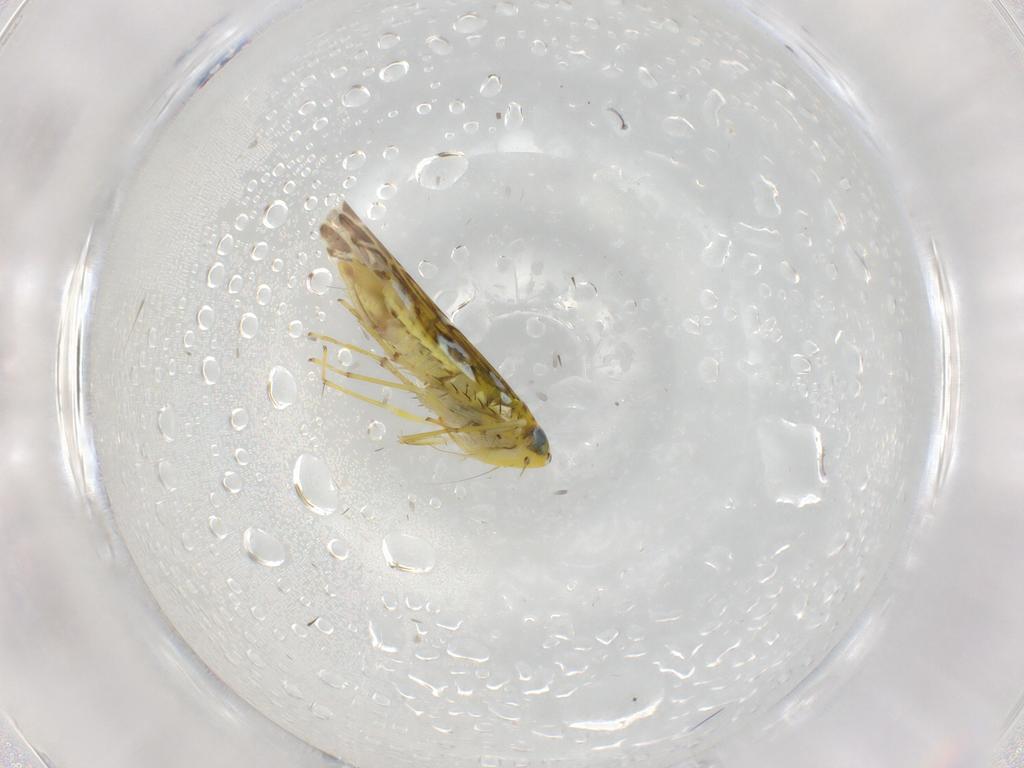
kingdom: Animalia
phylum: Arthropoda
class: Insecta
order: Hemiptera
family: Cicadellidae
